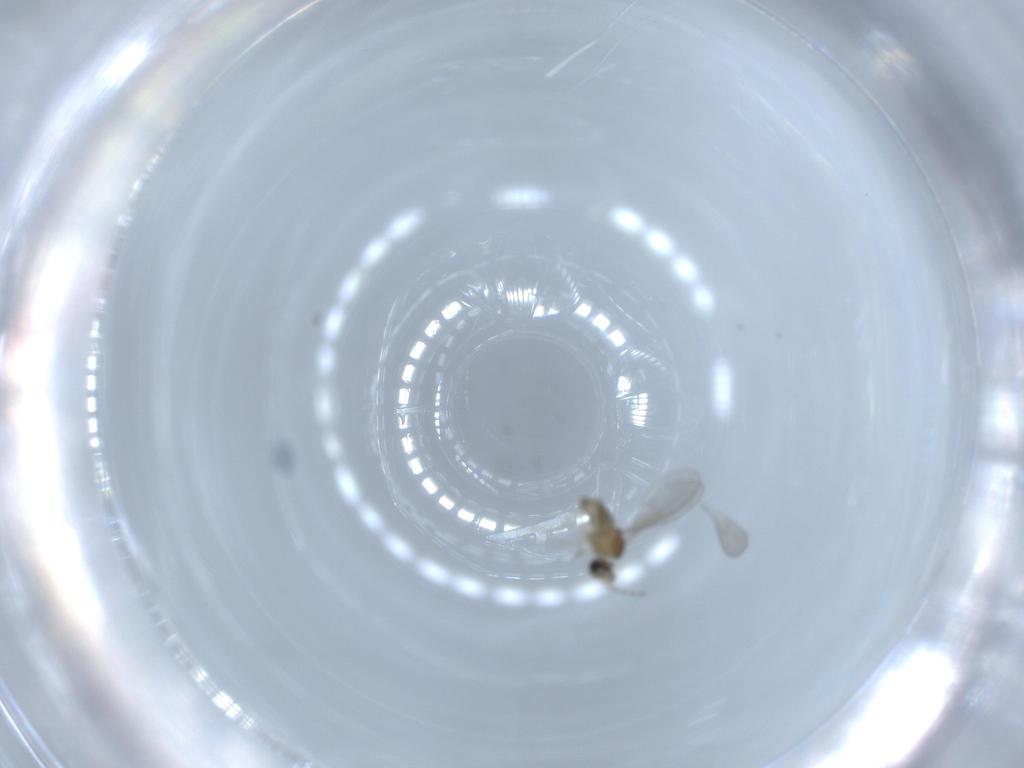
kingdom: Animalia
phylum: Arthropoda
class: Insecta
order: Diptera
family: Cecidomyiidae
